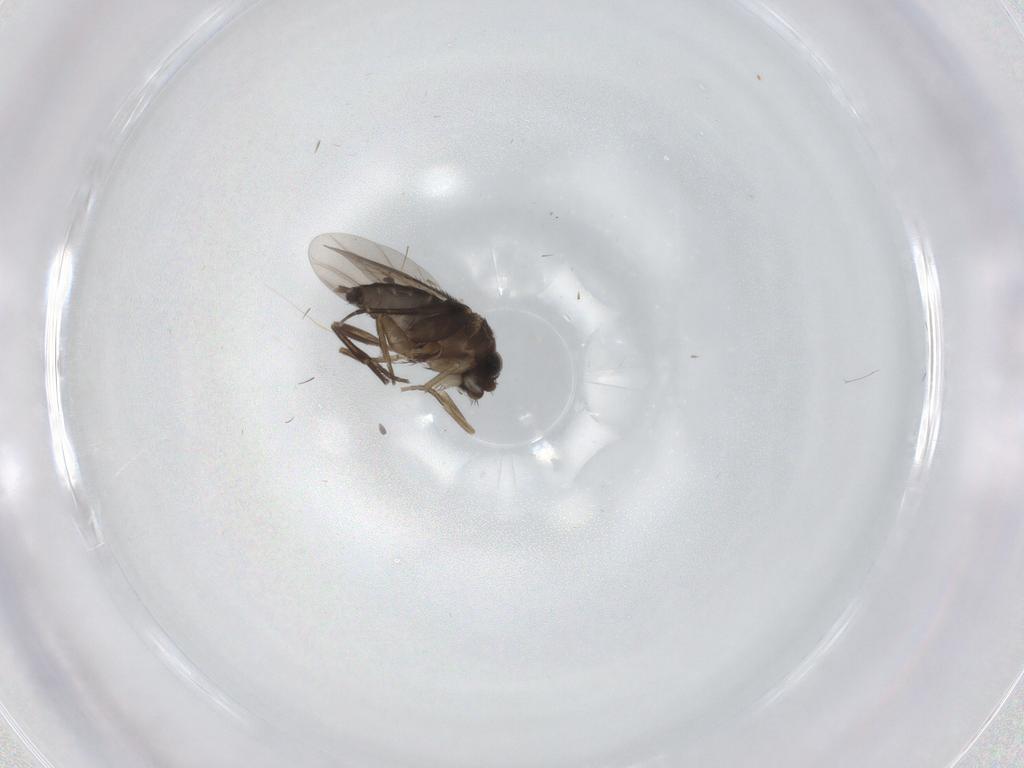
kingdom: Animalia
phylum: Arthropoda
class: Insecta
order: Diptera
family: Phoridae
